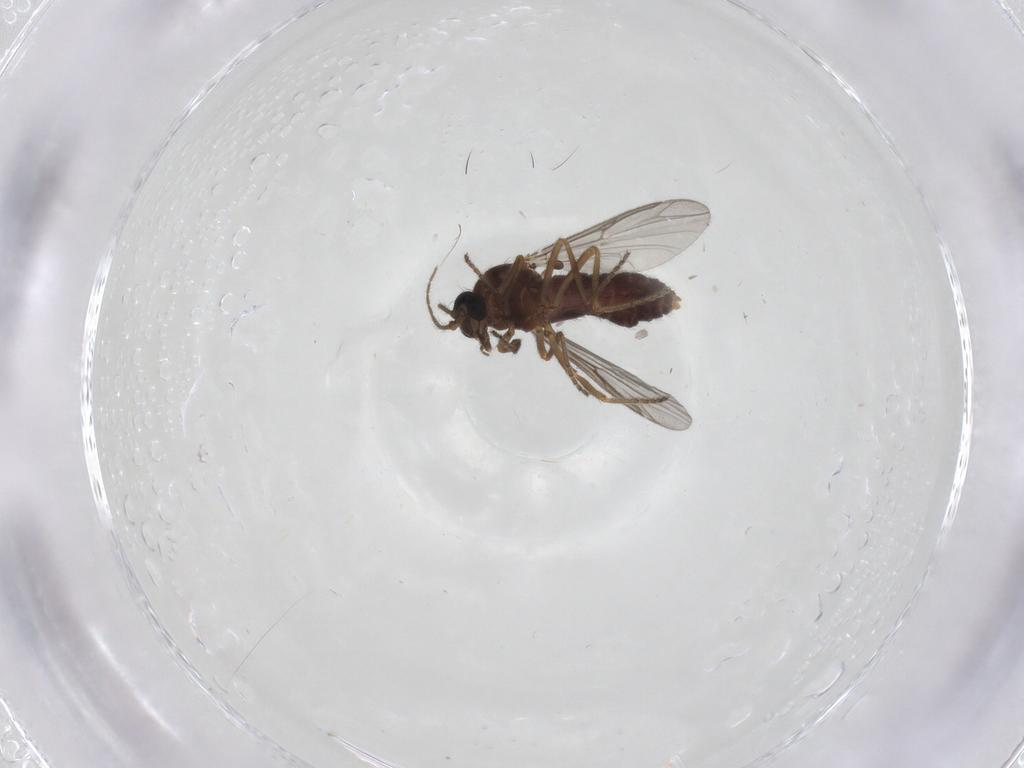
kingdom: Animalia
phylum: Arthropoda
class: Insecta
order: Diptera
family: Ceratopogonidae
